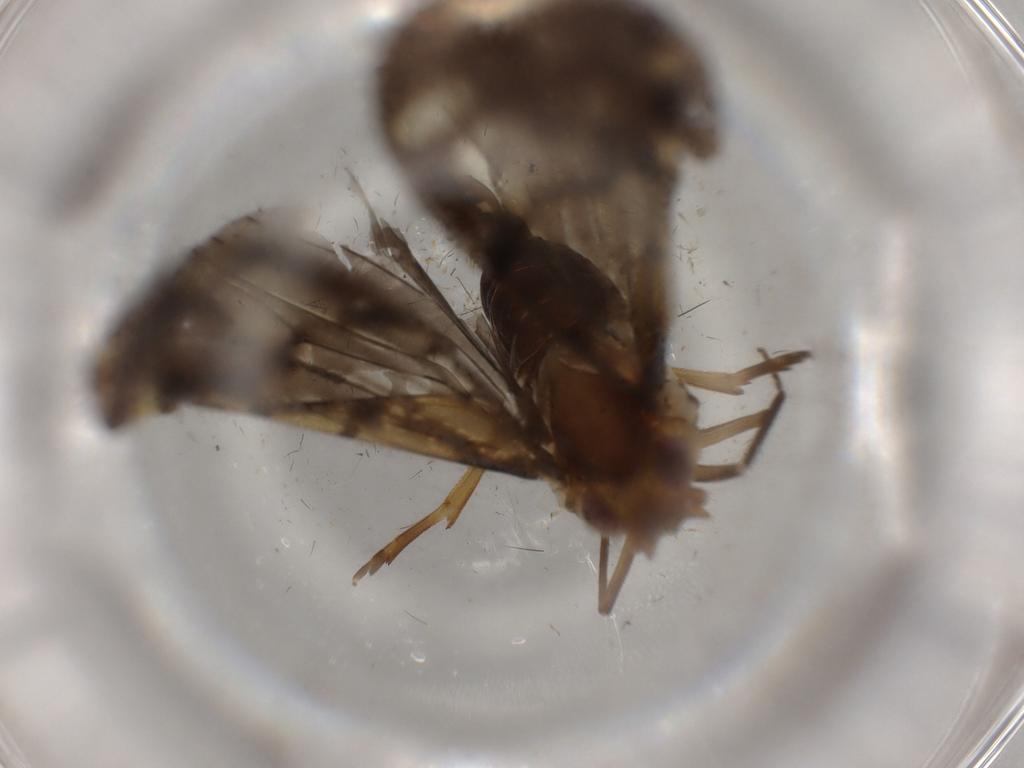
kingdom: Animalia
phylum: Arthropoda
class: Insecta
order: Hemiptera
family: Cixiidae
